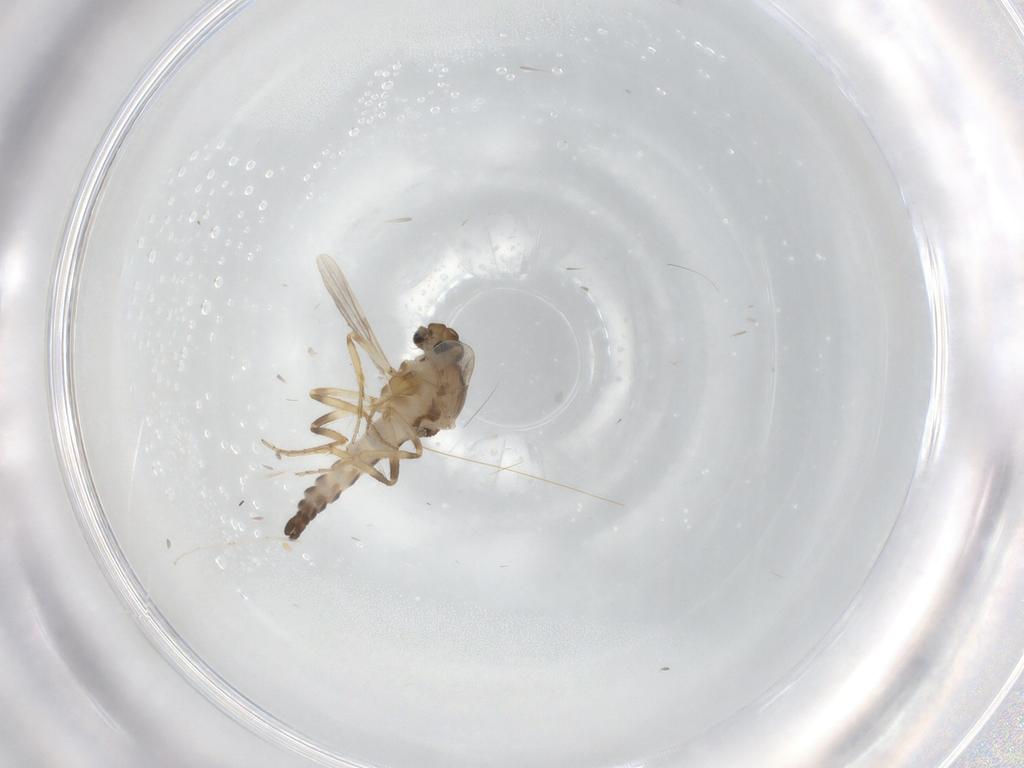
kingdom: Animalia
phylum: Arthropoda
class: Insecta
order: Diptera
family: Ceratopogonidae
